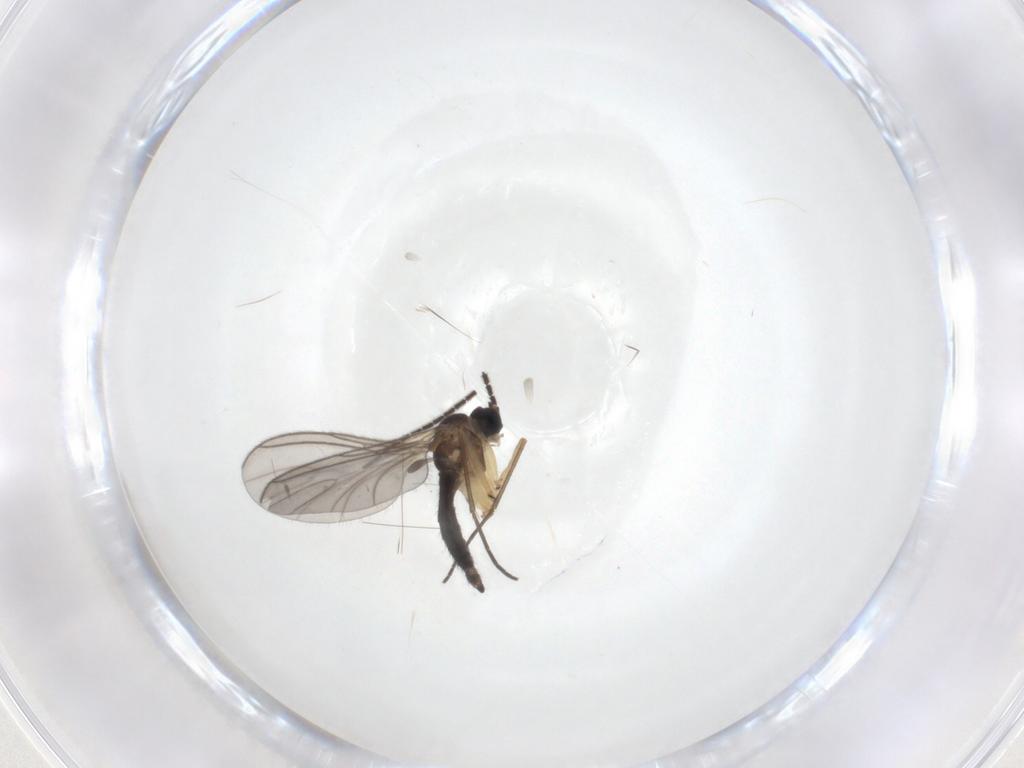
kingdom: Animalia
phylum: Arthropoda
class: Insecta
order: Diptera
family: Sciaridae
